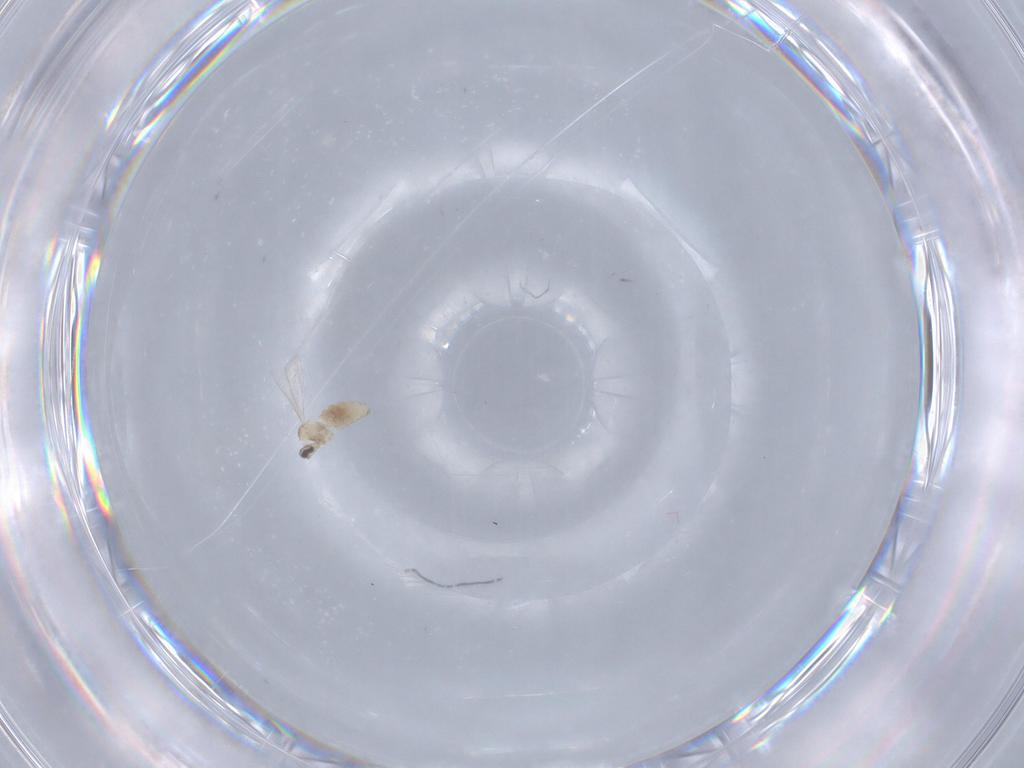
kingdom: Animalia
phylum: Arthropoda
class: Insecta
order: Diptera
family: Cecidomyiidae
